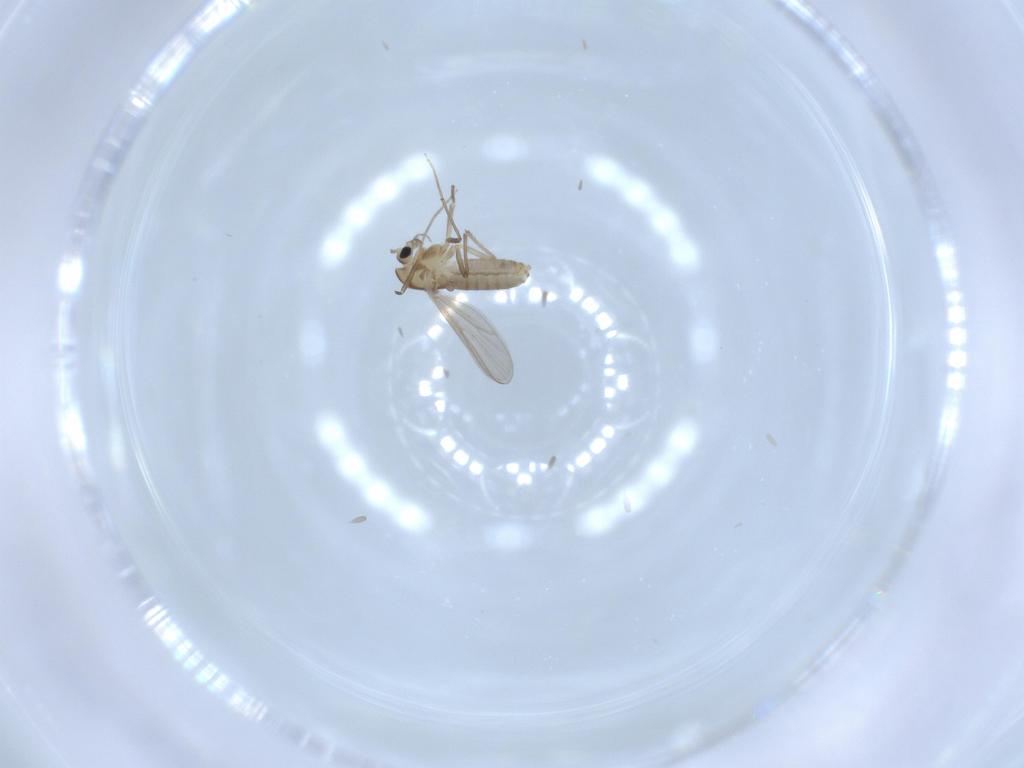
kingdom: Animalia
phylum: Arthropoda
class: Insecta
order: Diptera
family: Chironomidae
